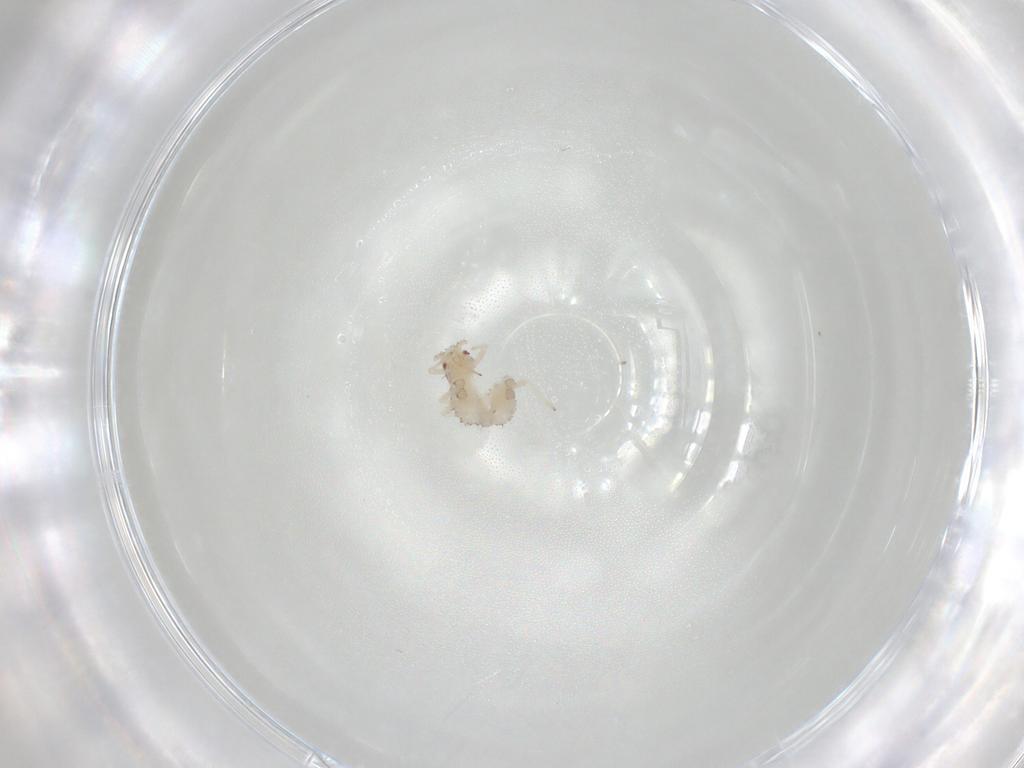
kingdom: Animalia
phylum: Arthropoda
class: Insecta
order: Hemiptera
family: Aphididae
